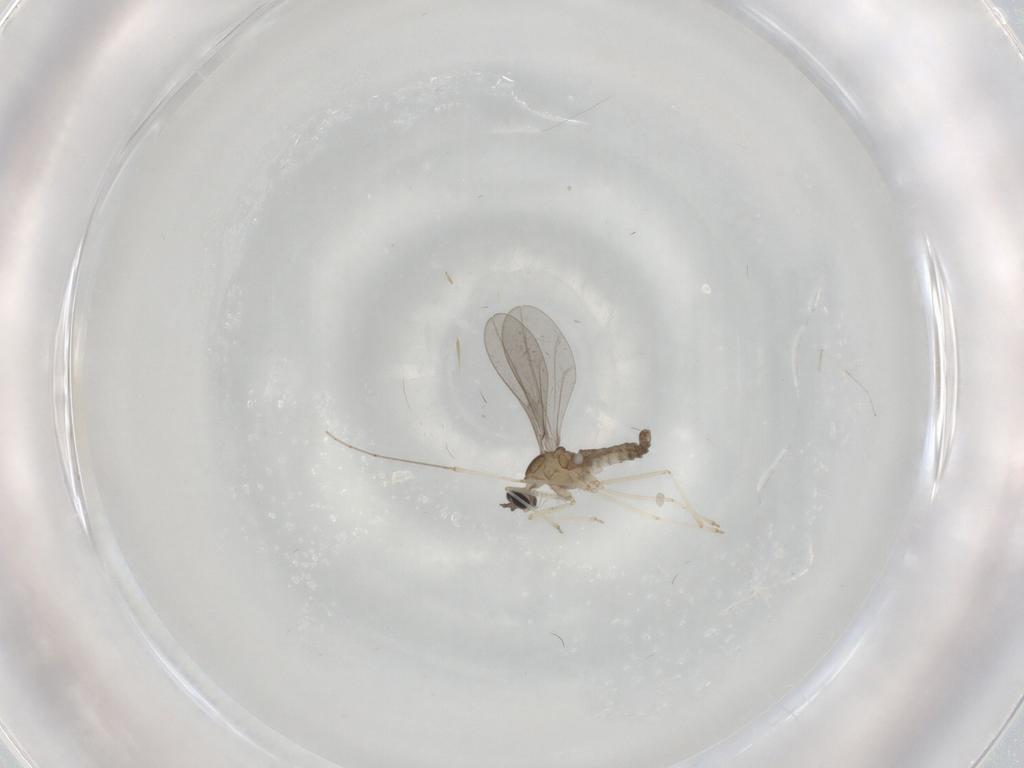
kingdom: Animalia
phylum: Arthropoda
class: Insecta
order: Diptera
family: Cecidomyiidae
